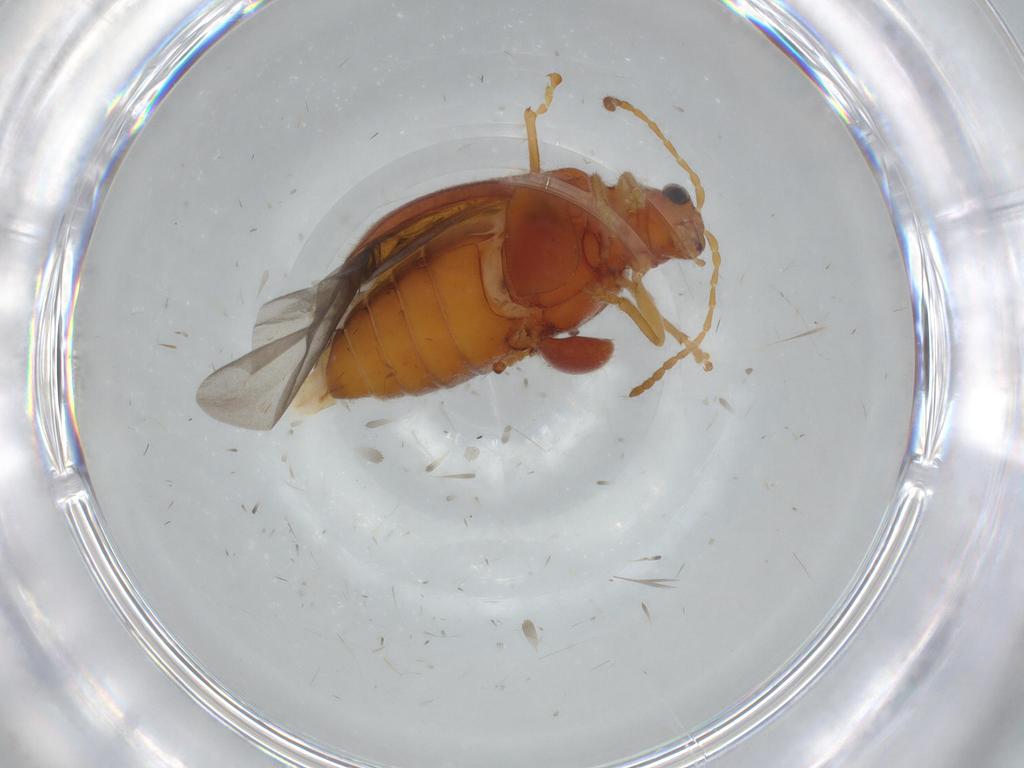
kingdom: Animalia
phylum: Arthropoda
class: Insecta
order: Coleoptera
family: Chrysomelidae
